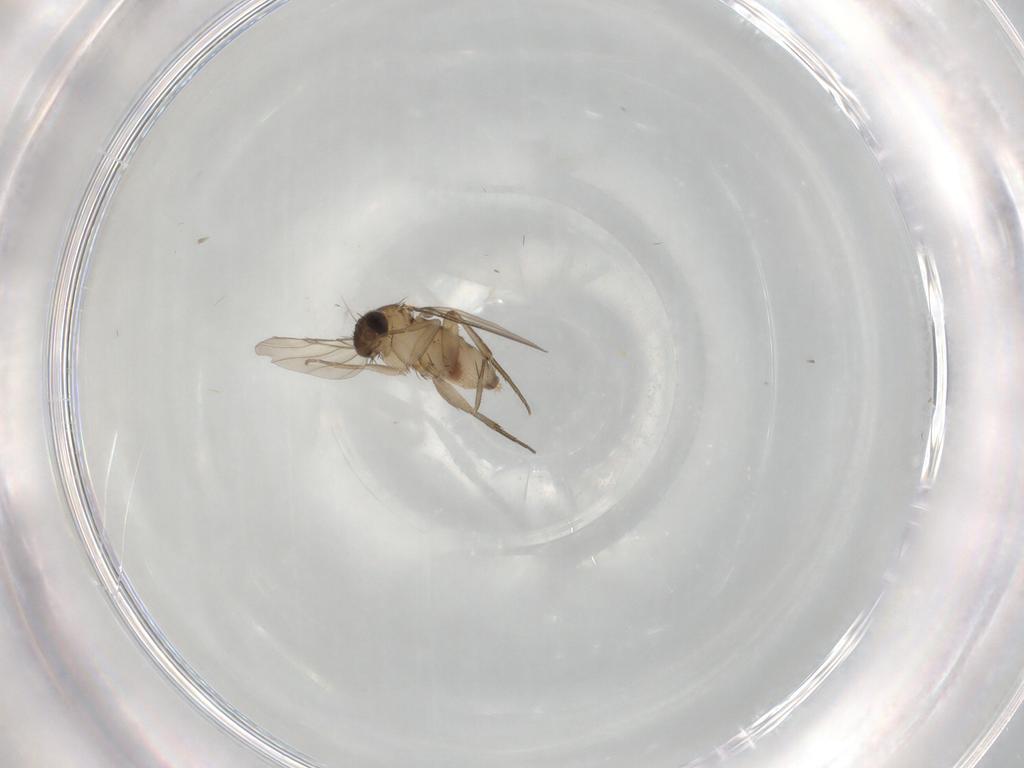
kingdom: Animalia
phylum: Arthropoda
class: Insecta
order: Diptera
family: Phoridae
